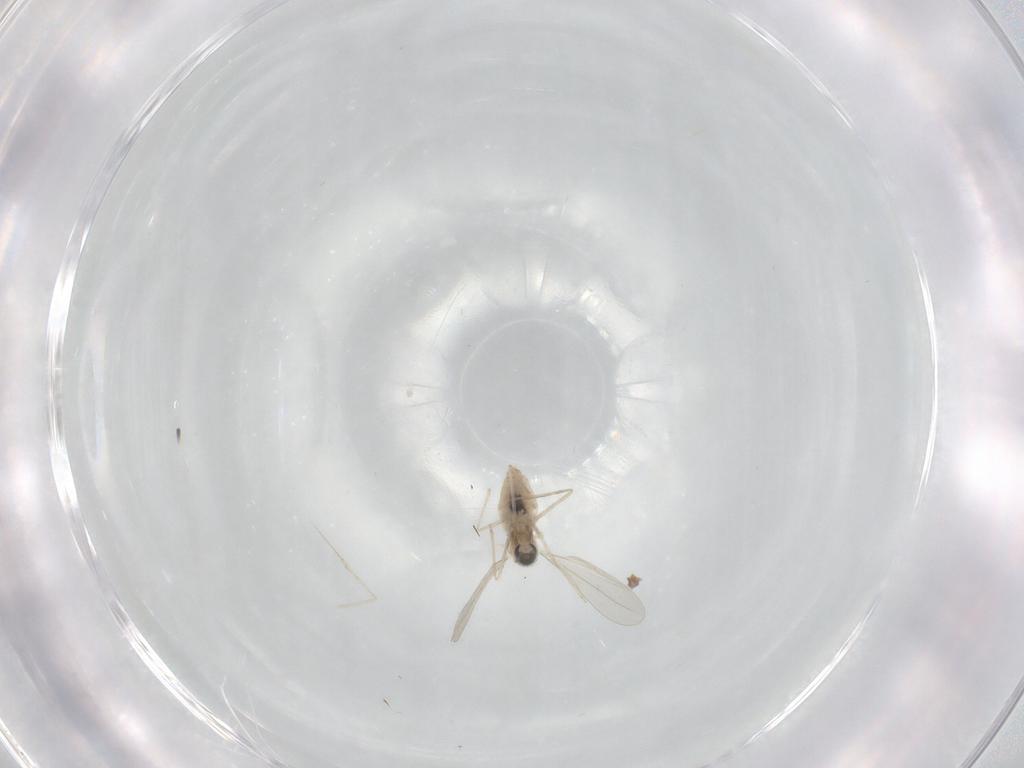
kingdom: Animalia
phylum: Arthropoda
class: Insecta
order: Diptera
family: Cecidomyiidae
